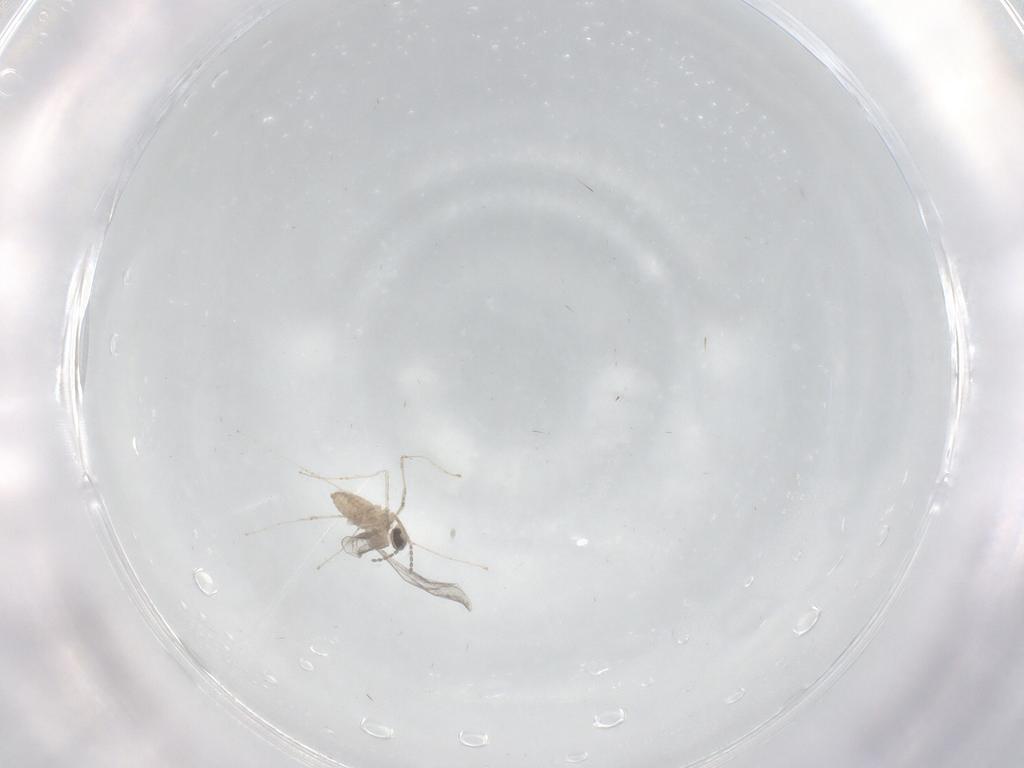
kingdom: Animalia
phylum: Arthropoda
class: Insecta
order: Diptera
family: Cecidomyiidae
